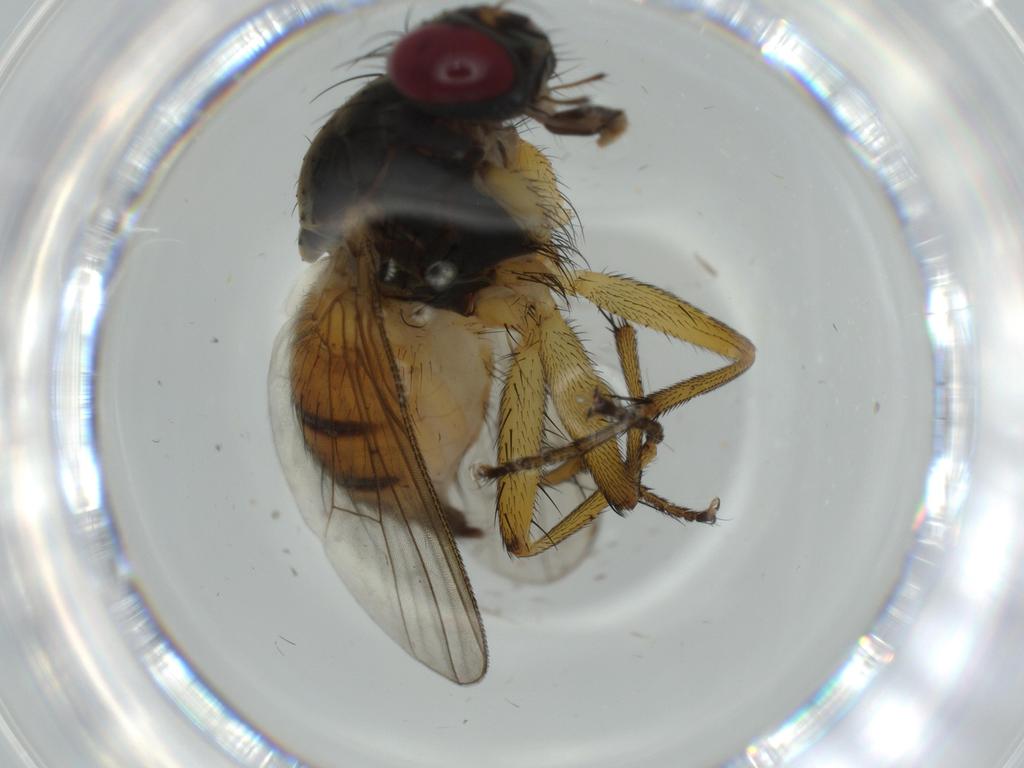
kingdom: Animalia
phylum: Arthropoda
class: Insecta
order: Diptera
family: Muscidae
